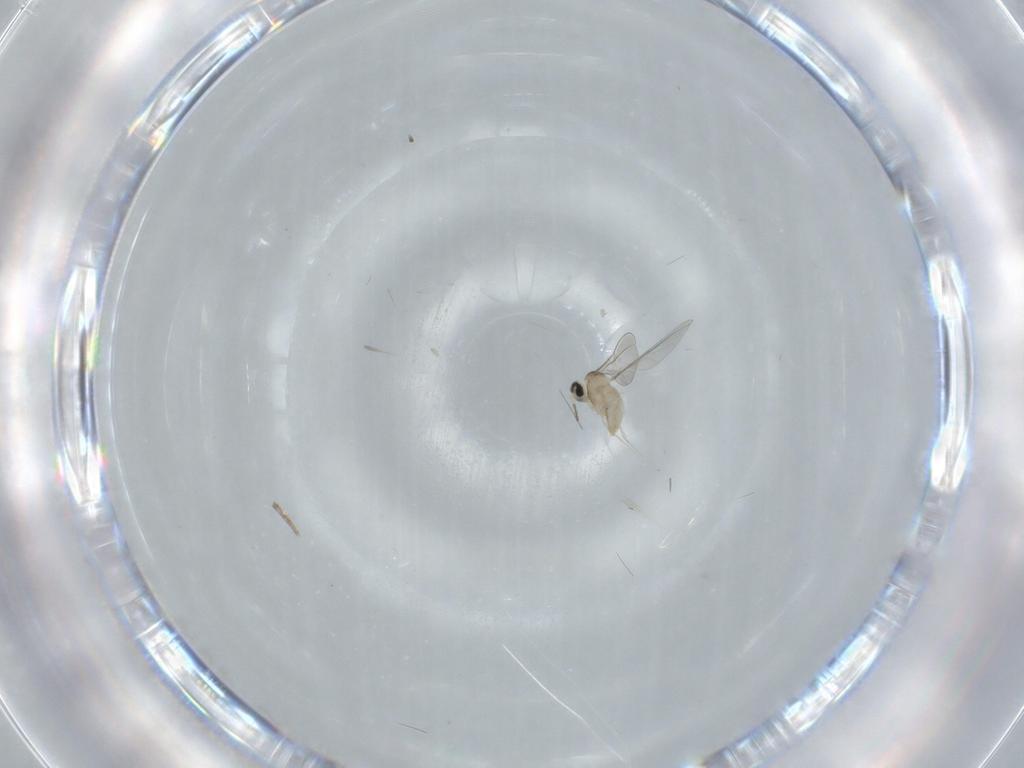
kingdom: Animalia
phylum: Arthropoda
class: Insecta
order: Diptera
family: Cecidomyiidae
